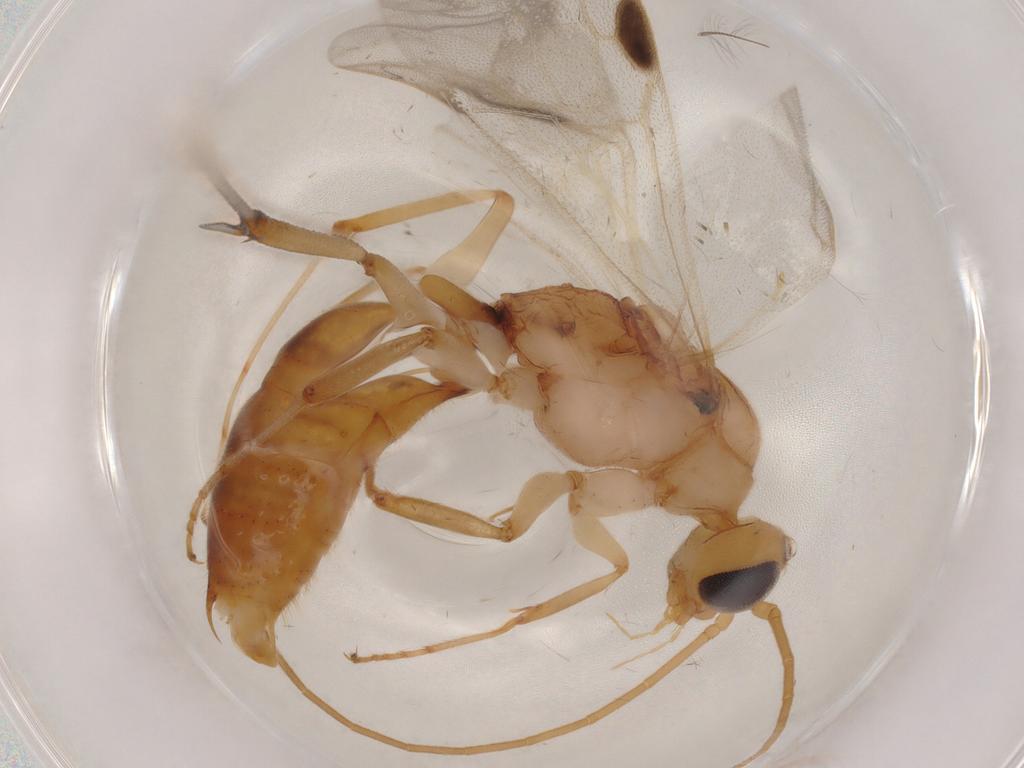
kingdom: Animalia
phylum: Arthropoda
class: Insecta
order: Hymenoptera
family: Formicidae
